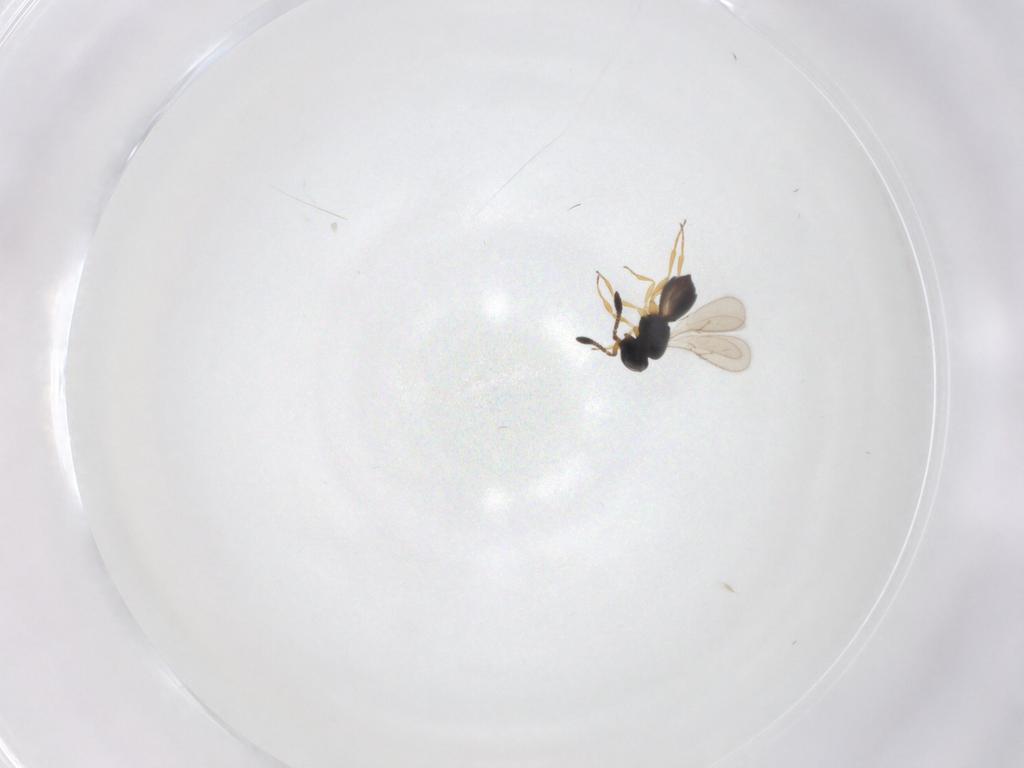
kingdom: Animalia
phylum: Arthropoda
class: Insecta
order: Hymenoptera
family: Scelionidae
